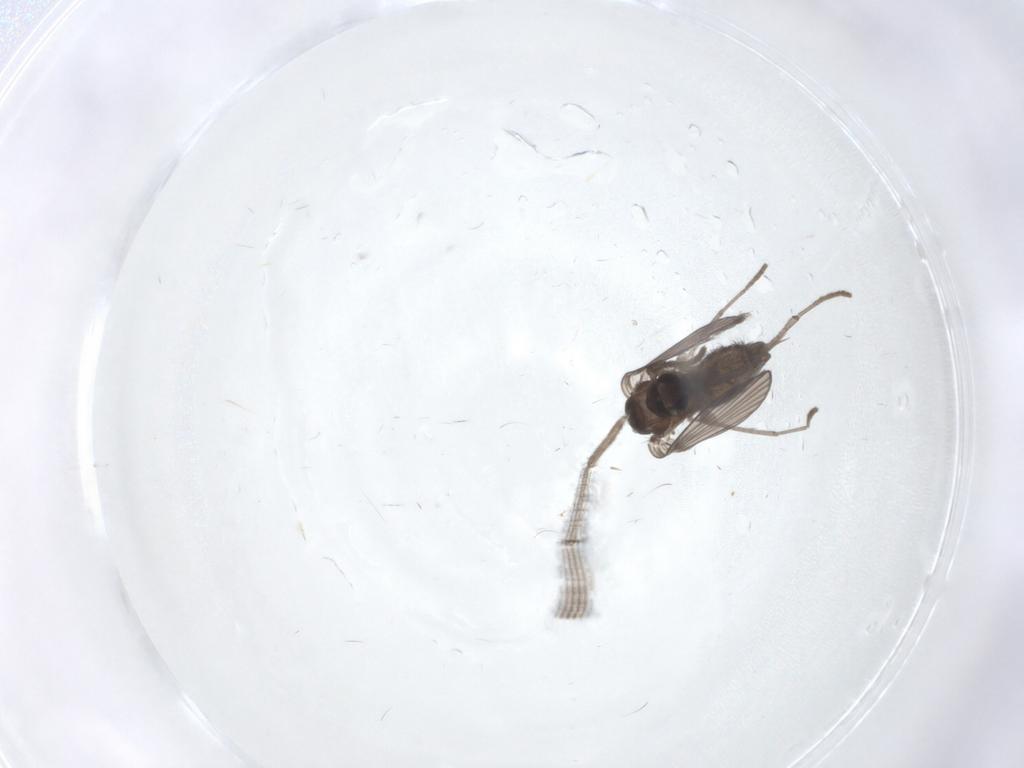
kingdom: Animalia
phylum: Arthropoda
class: Insecta
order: Diptera
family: Psychodidae
